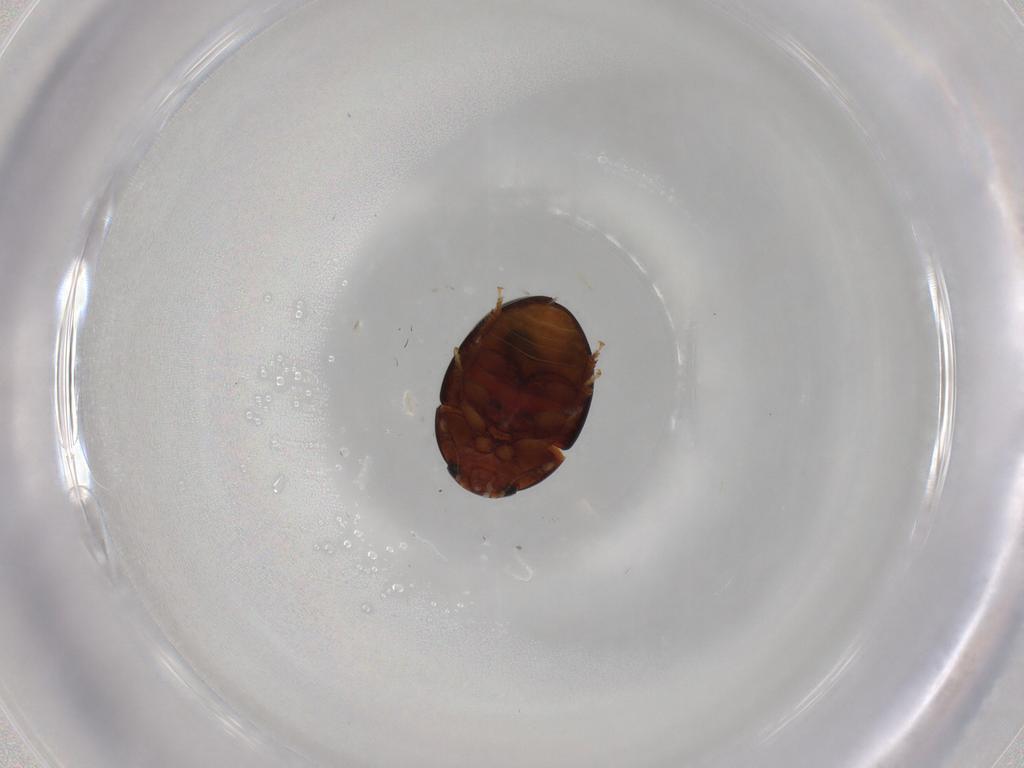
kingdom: Animalia
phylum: Arthropoda
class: Insecta
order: Coleoptera
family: Phalacridae
